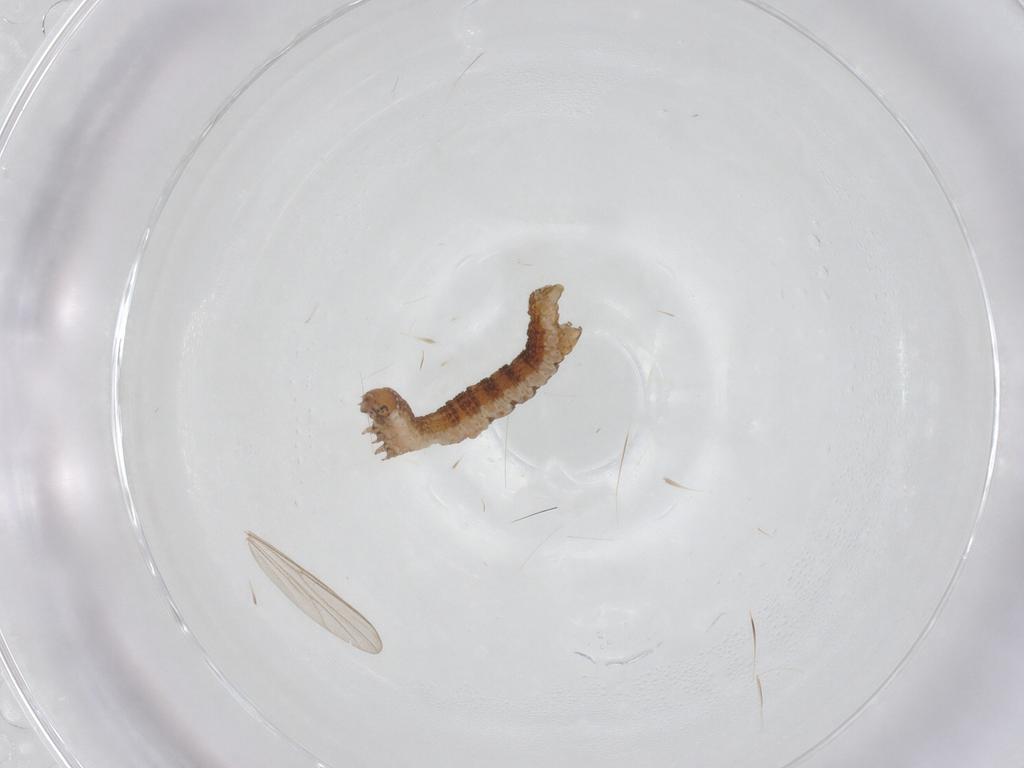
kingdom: Animalia
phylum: Arthropoda
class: Insecta
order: Lepidoptera
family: Geometridae
